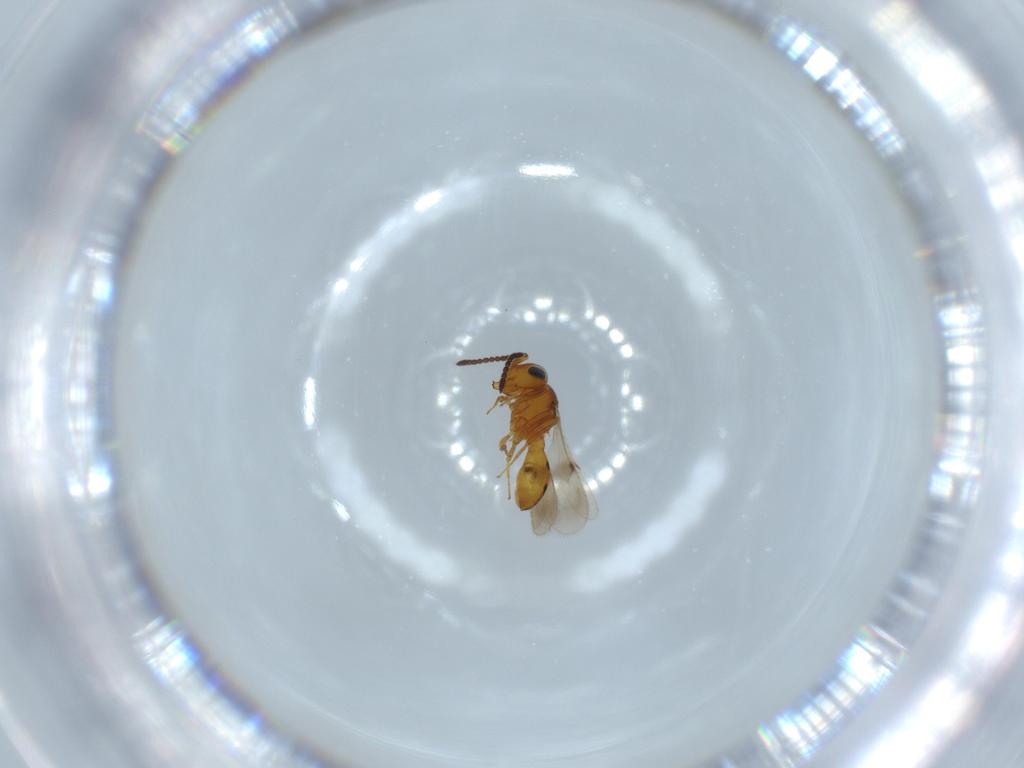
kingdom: Animalia
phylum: Arthropoda
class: Insecta
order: Hymenoptera
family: Scelionidae
